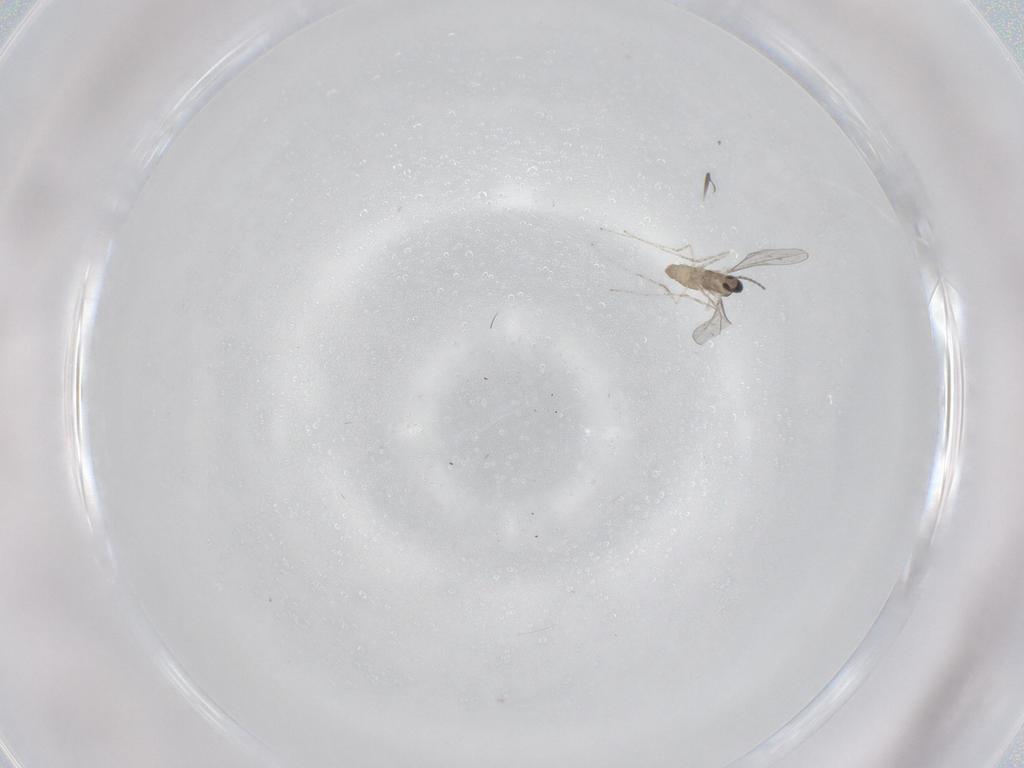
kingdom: Animalia
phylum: Arthropoda
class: Insecta
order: Diptera
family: Cecidomyiidae
